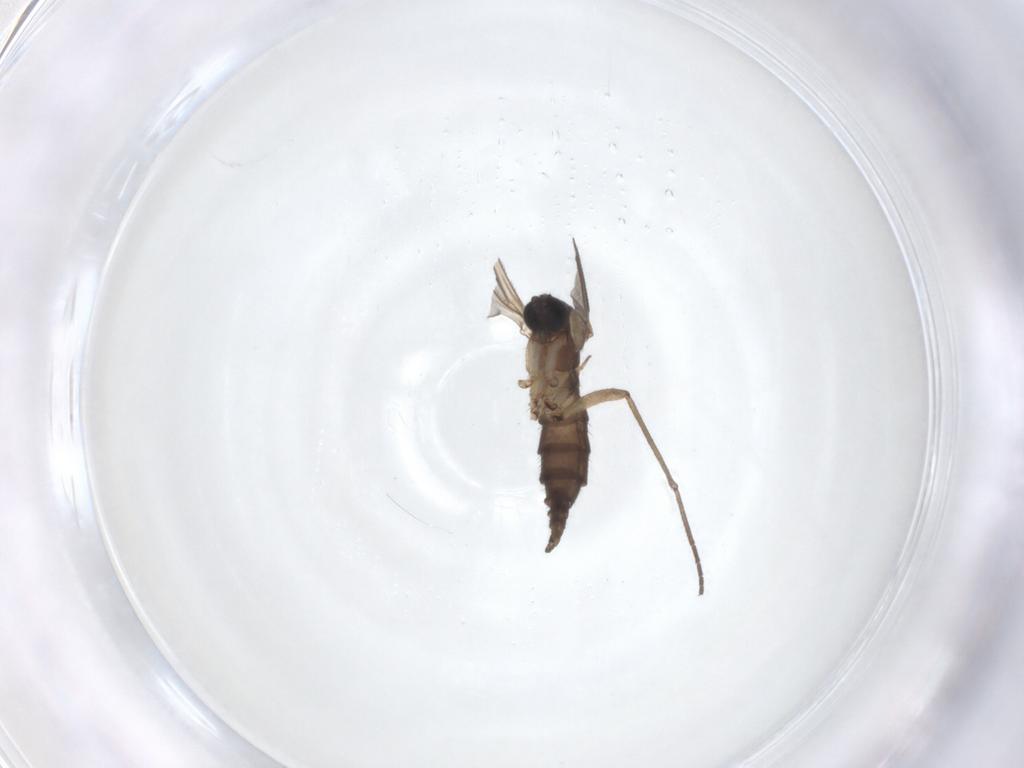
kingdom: Animalia
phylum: Arthropoda
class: Insecta
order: Diptera
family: Sciaridae
